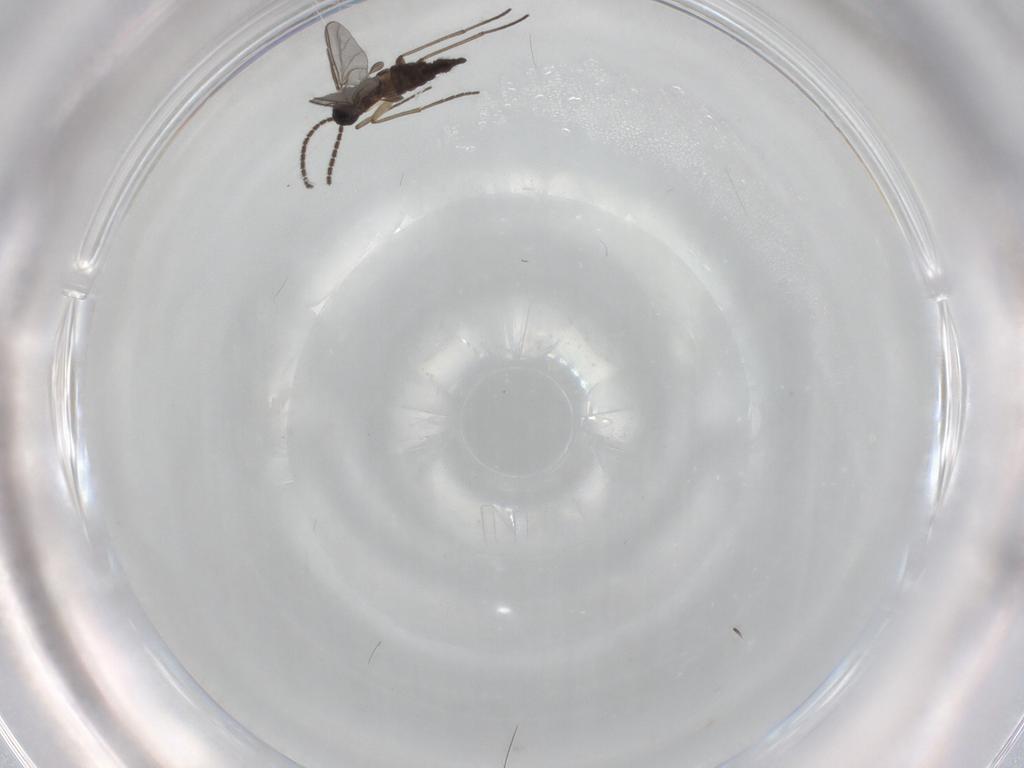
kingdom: Animalia
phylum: Arthropoda
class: Insecta
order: Diptera
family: Sciaridae
